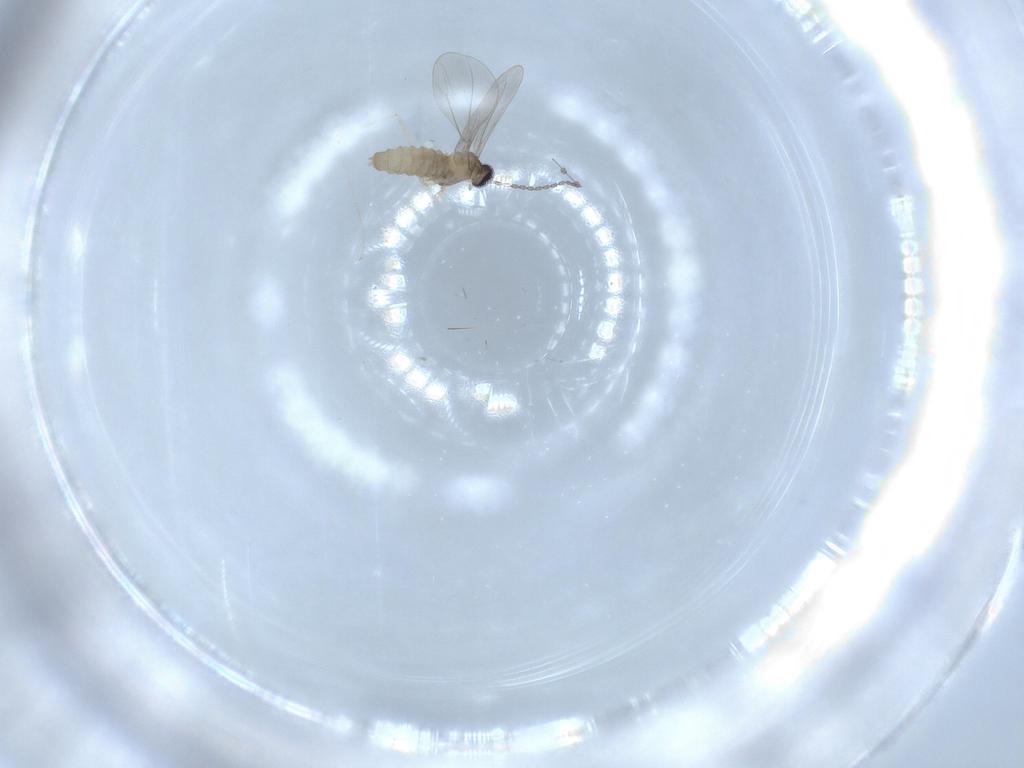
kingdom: Animalia
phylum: Arthropoda
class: Insecta
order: Diptera
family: Cecidomyiidae
